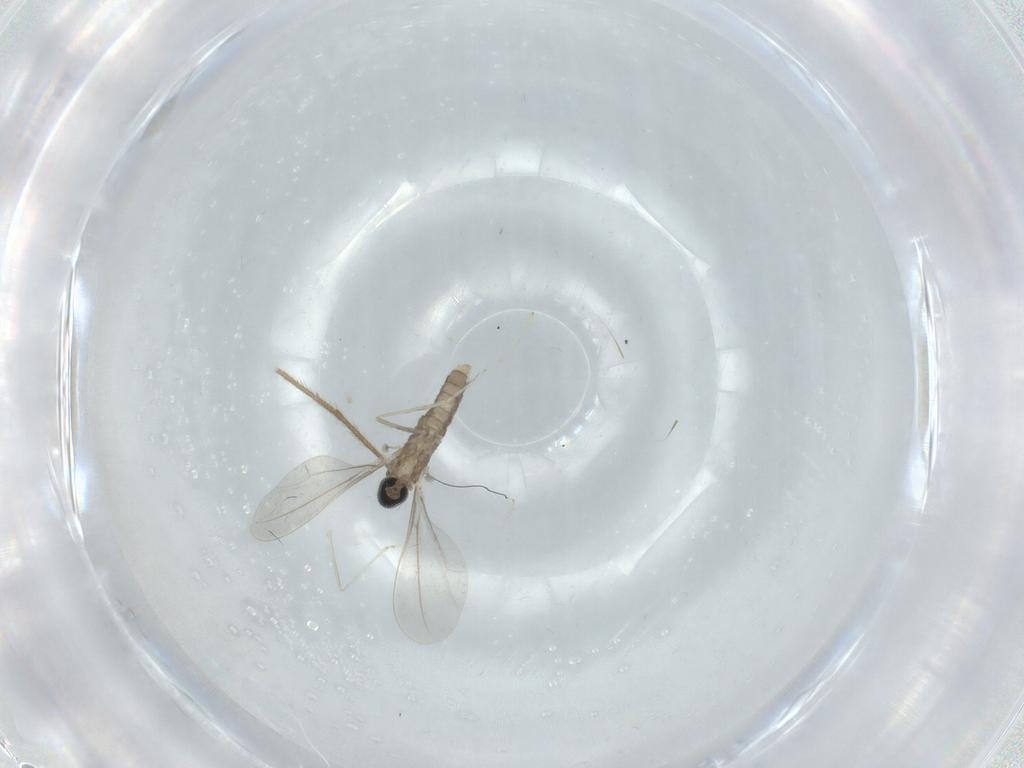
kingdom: Animalia
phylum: Arthropoda
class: Insecta
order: Diptera
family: Cecidomyiidae
